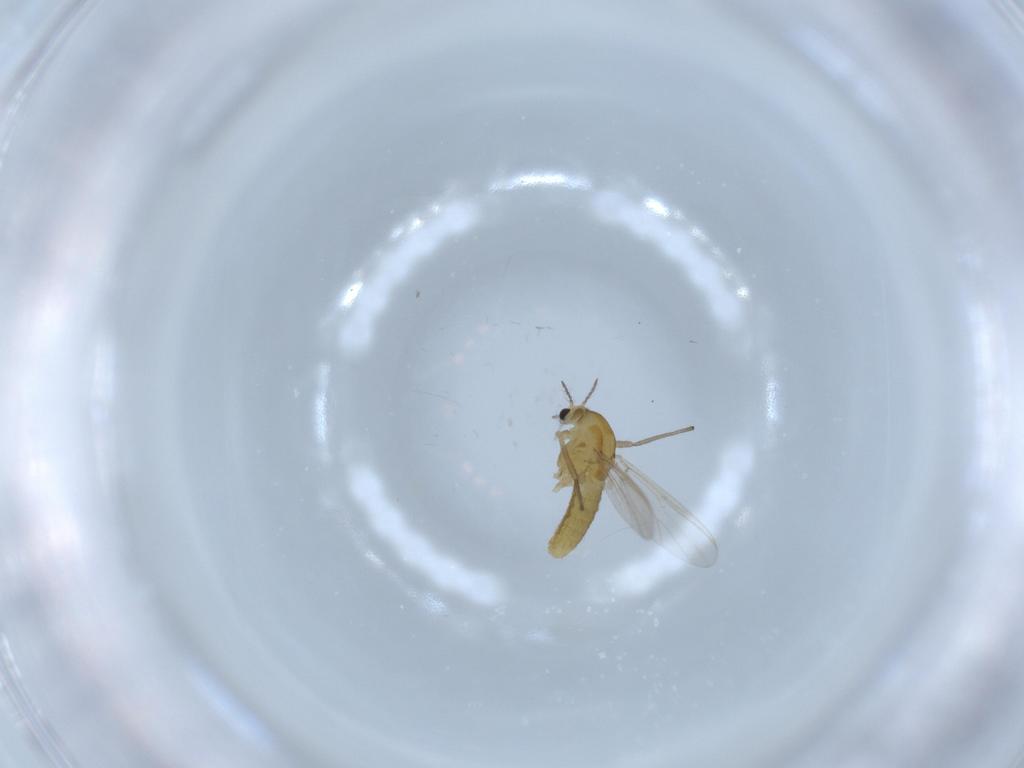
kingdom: Animalia
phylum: Arthropoda
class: Insecta
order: Diptera
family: Chironomidae
